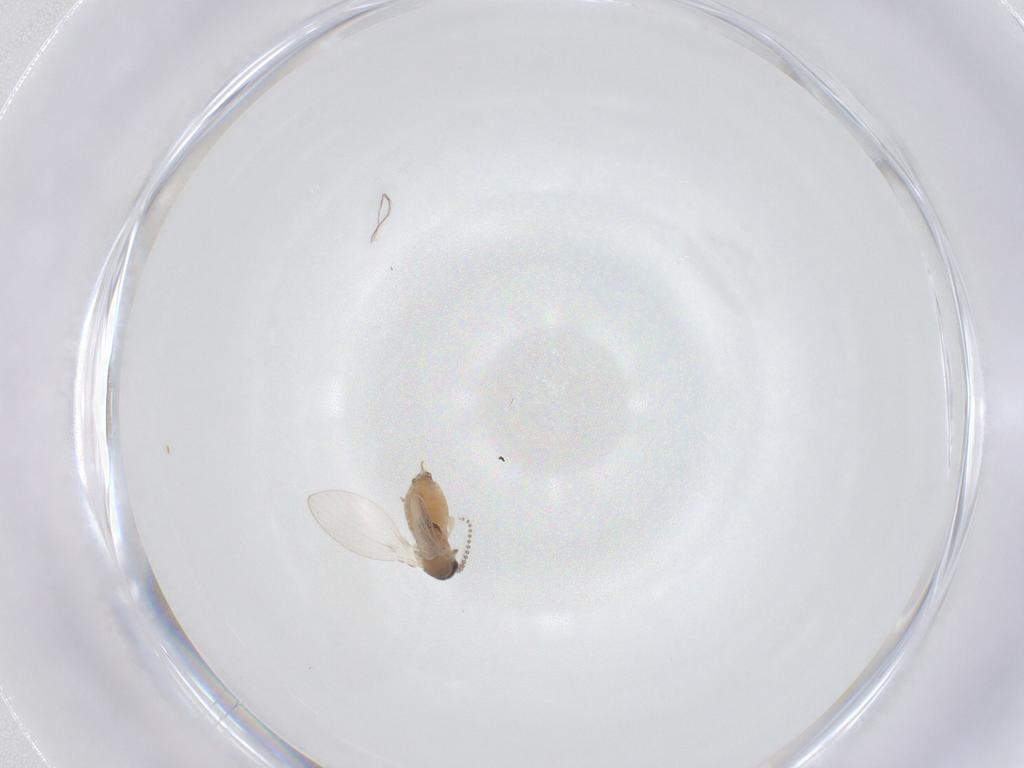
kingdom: Animalia
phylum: Arthropoda
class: Insecta
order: Diptera
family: Psychodidae
